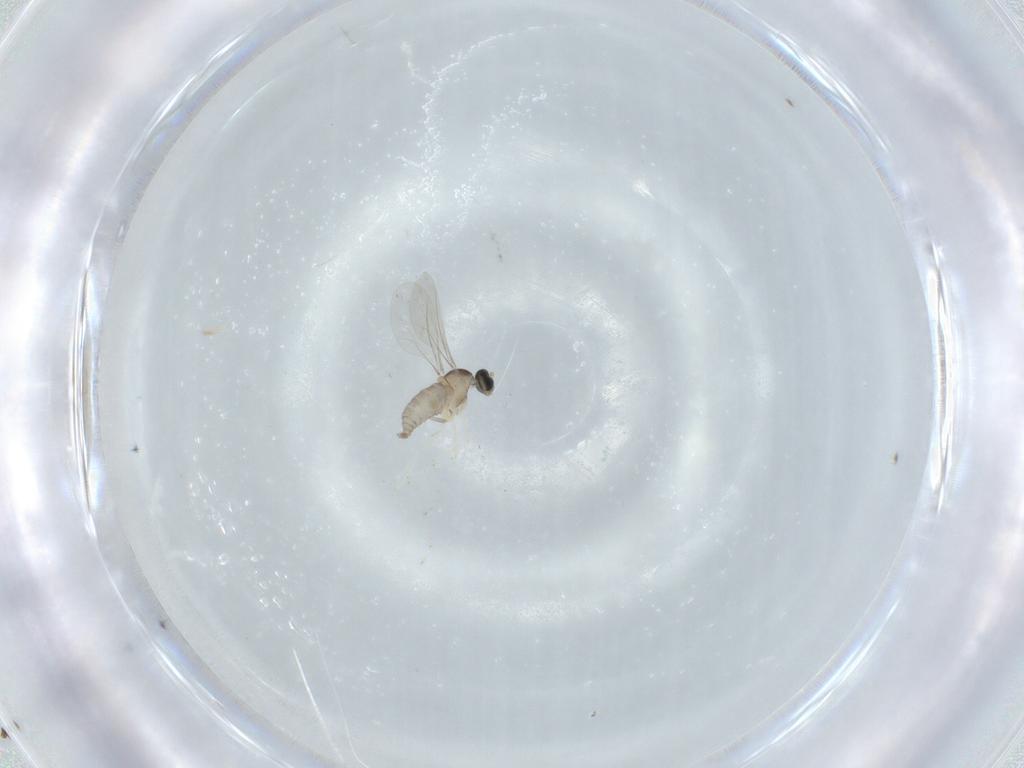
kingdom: Animalia
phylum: Arthropoda
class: Insecta
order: Diptera
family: Cecidomyiidae
